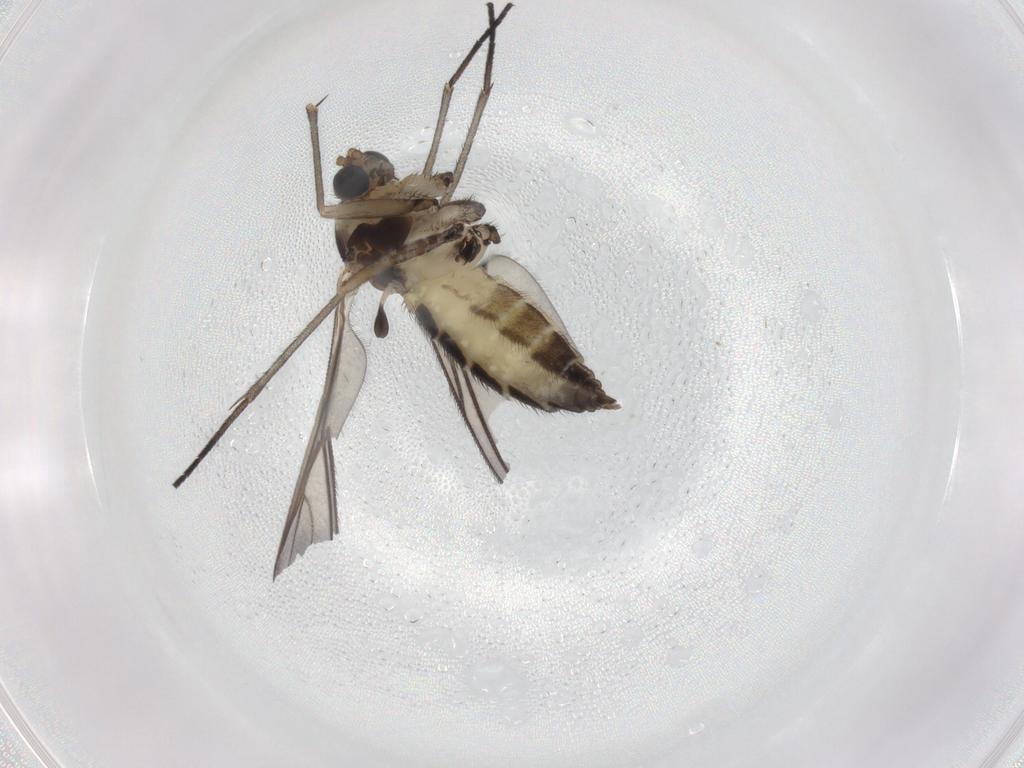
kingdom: Animalia
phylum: Arthropoda
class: Insecta
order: Diptera
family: Sciaridae
